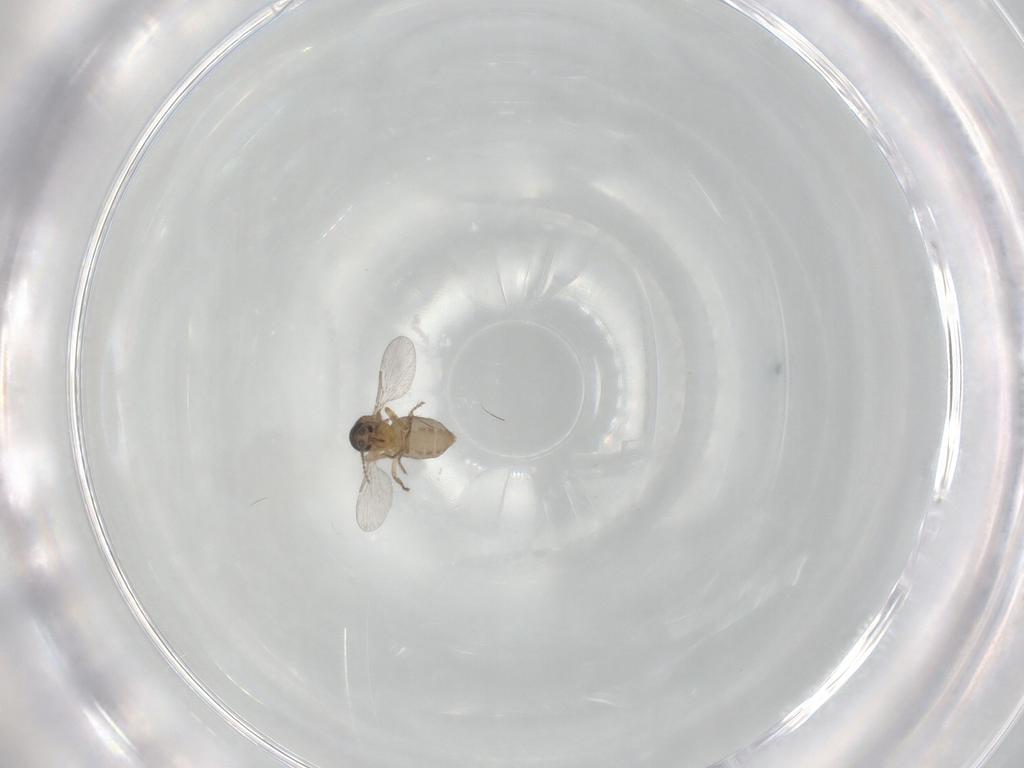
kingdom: Animalia
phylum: Arthropoda
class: Insecta
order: Diptera
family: Ceratopogonidae
